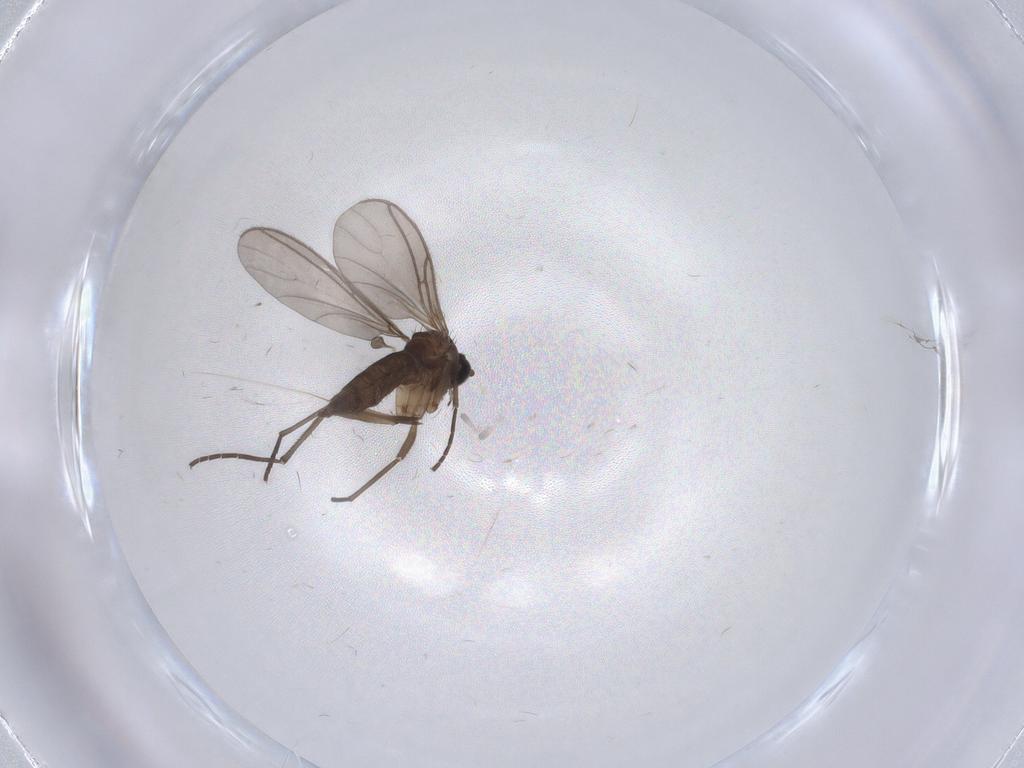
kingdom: Animalia
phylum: Arthropoda
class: Insecta
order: Diptera
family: Sciaridae
